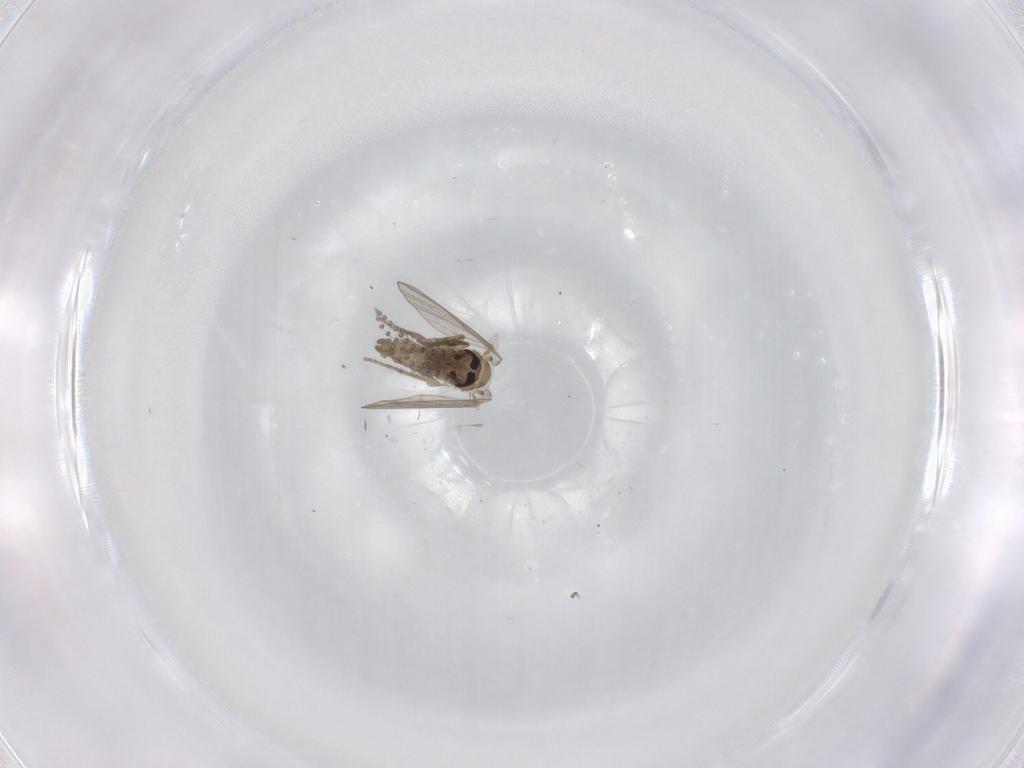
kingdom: Animalia
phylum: Arthropoda
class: Insecta
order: Diptera
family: Psychodidae
